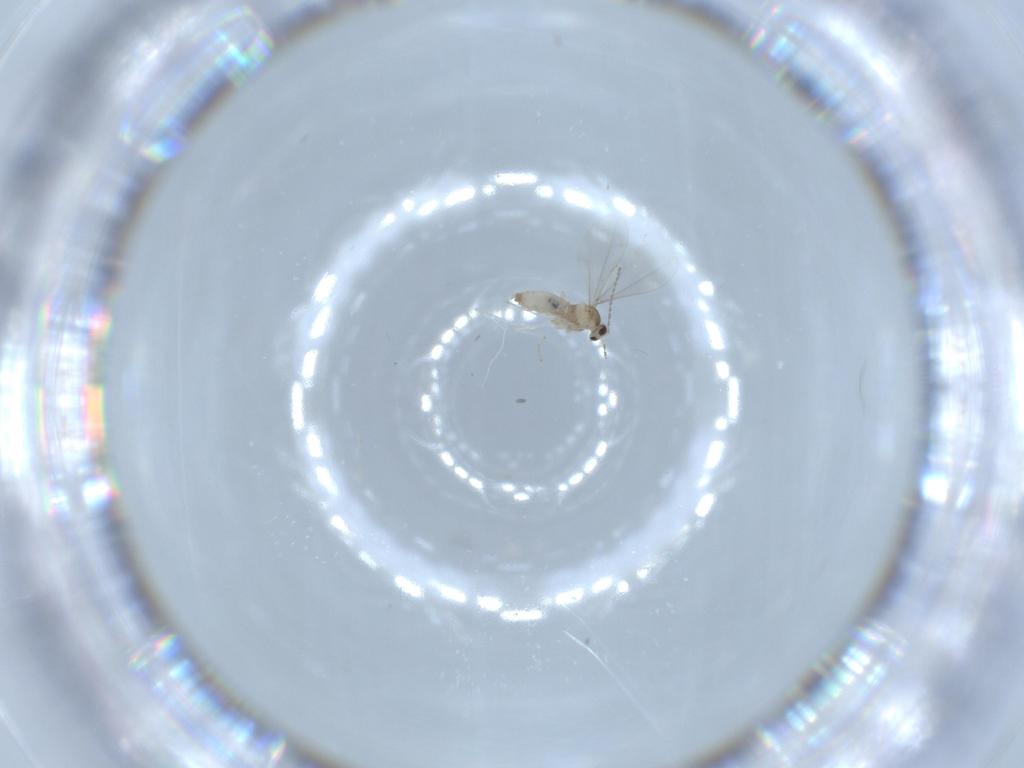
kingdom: Animalia
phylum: Arthropoda
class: Insecta
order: Diptera
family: Cecidomyiidae
